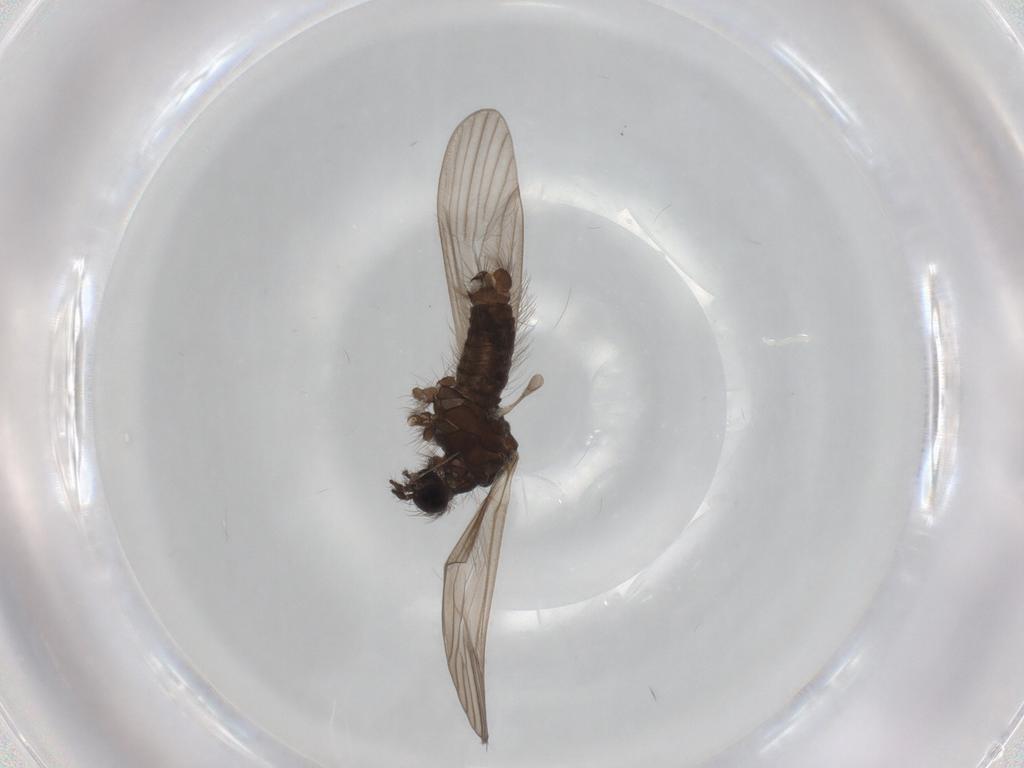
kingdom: Animalia
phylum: Arthropoda
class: Insecta
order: Diptera
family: Limoniidae
